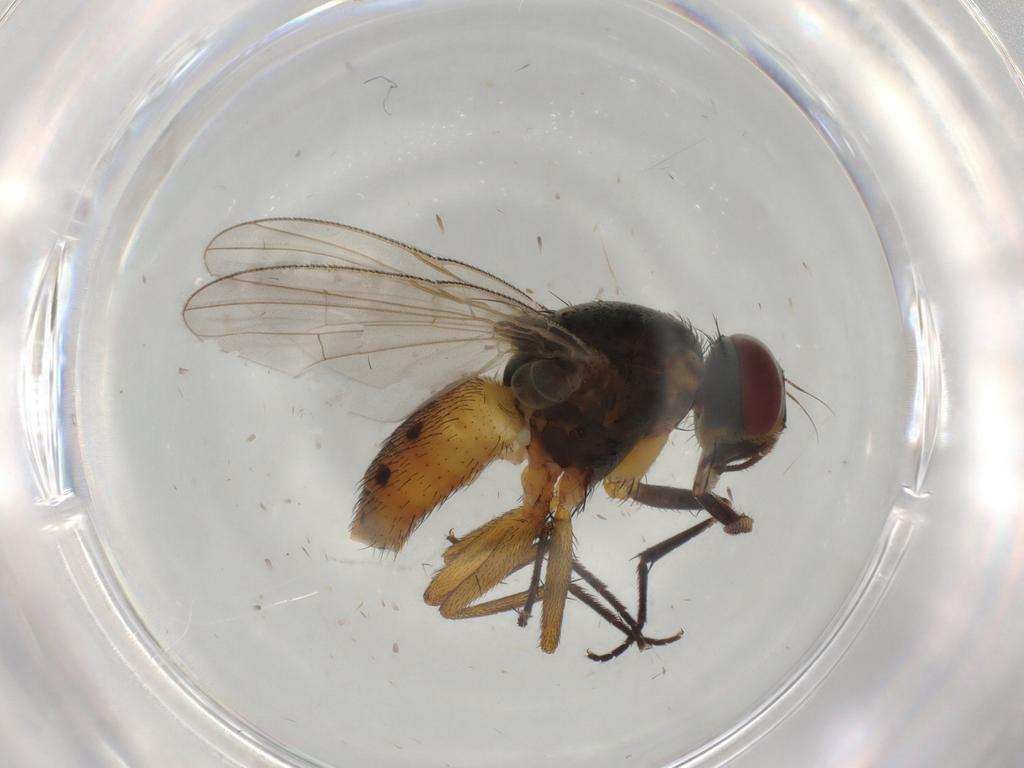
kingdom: Animalia
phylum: Arthropoda
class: Insecta
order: Diptera
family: Muscidae
